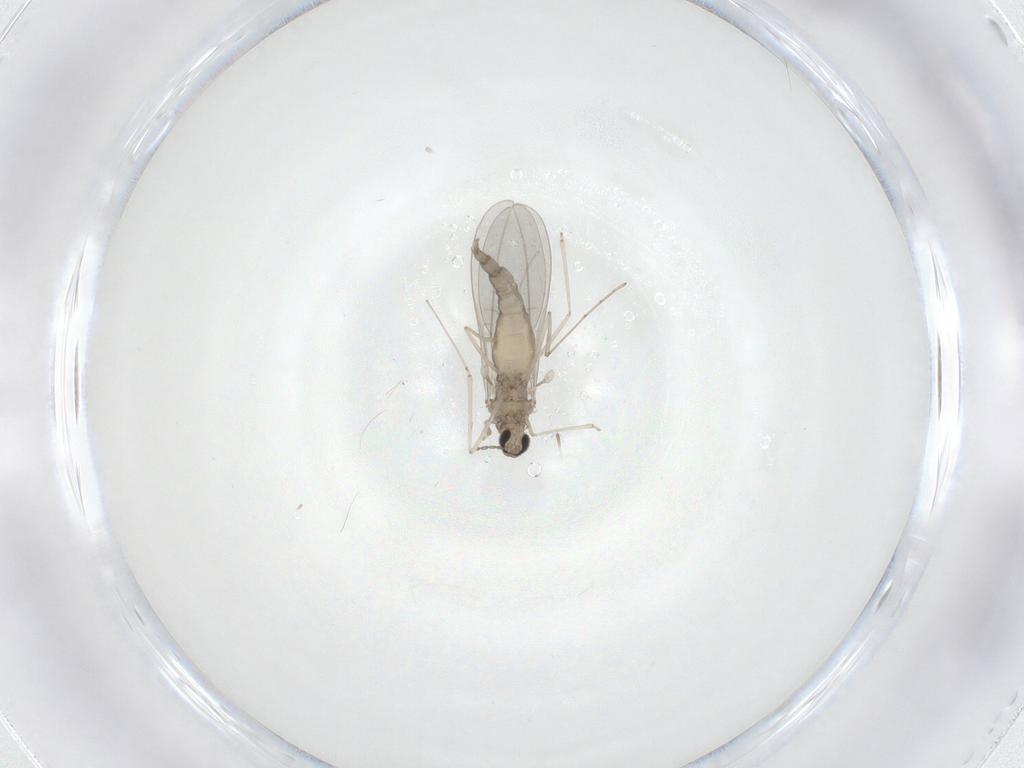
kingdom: Animalia
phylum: Arthropoda
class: Insecta
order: Diptera
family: Cecidomyiidae
